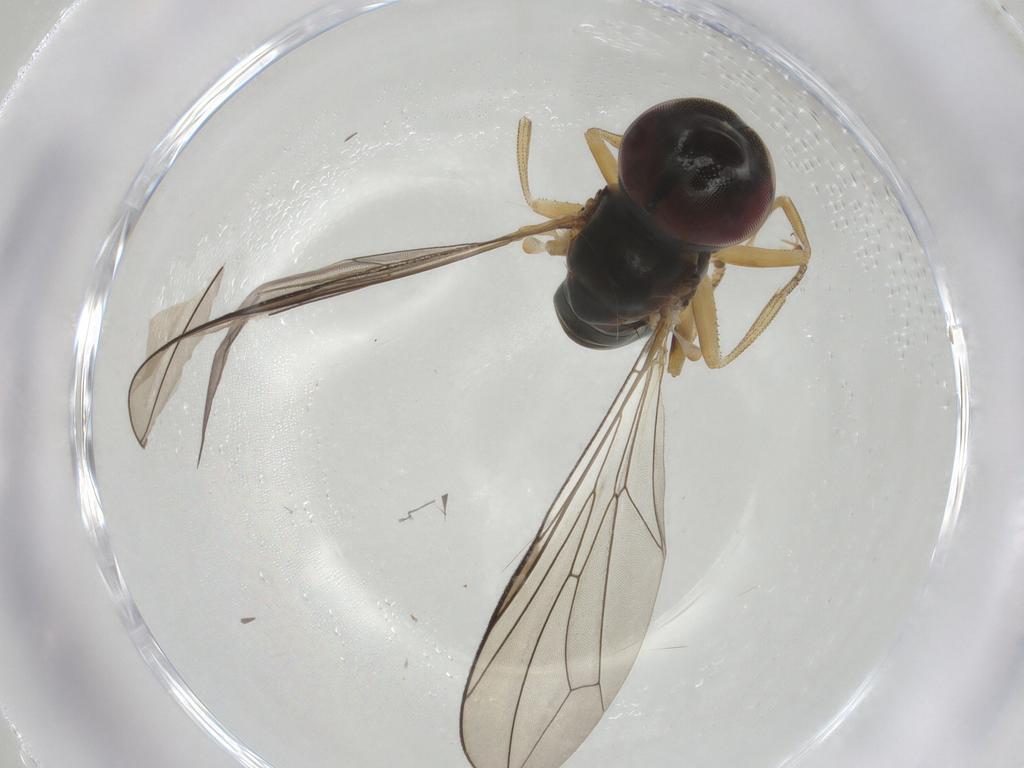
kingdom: Animalia
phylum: Arthropoda
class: Insecta
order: Diptera
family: Pipunculidae
